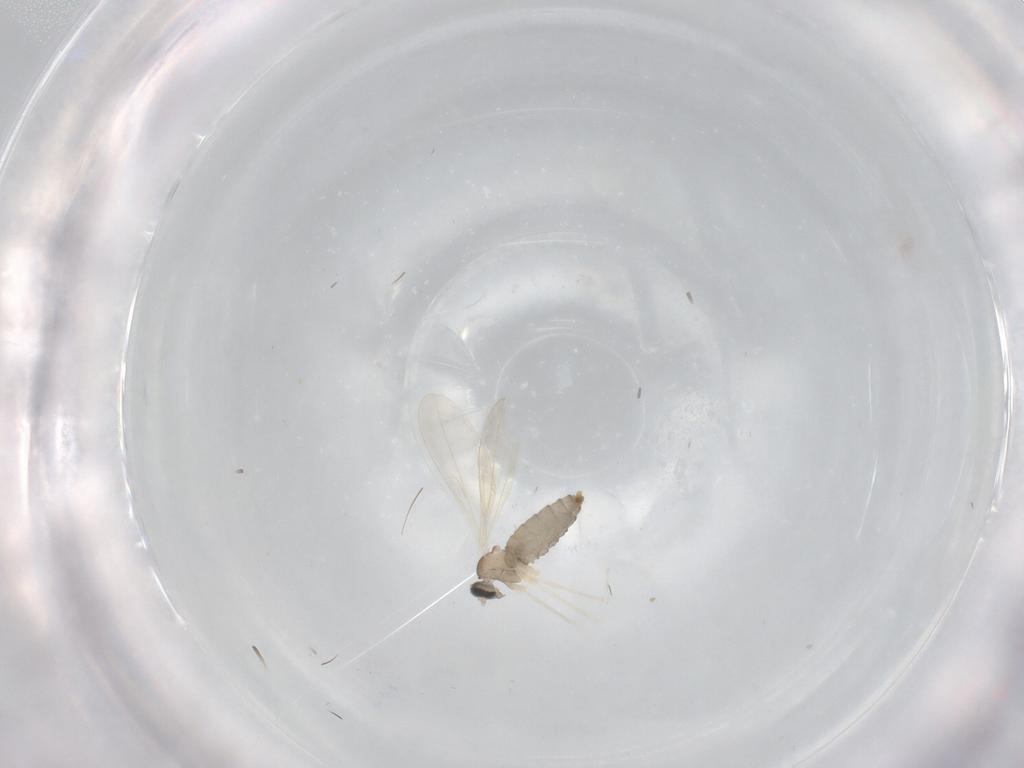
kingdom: Animalia
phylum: Arthropoda
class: Insecta
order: Diptera
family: Cecidomyiidae
